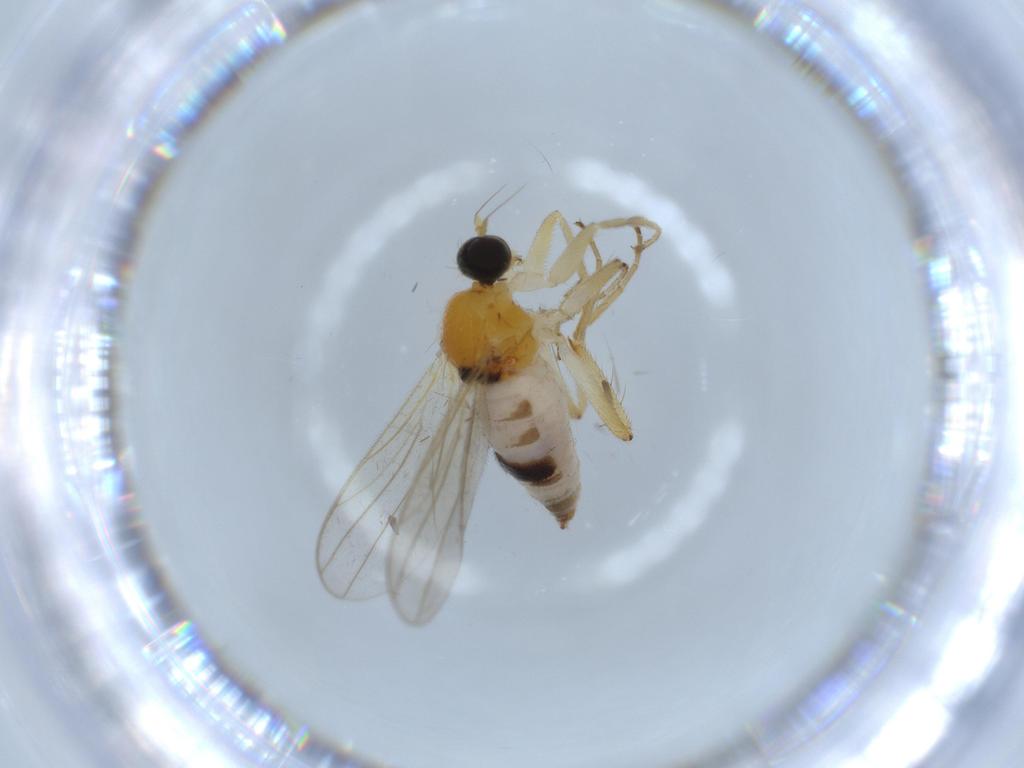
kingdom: Animalia
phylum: Arthropoda
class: Insecta
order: Diptera
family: Hybotidae
